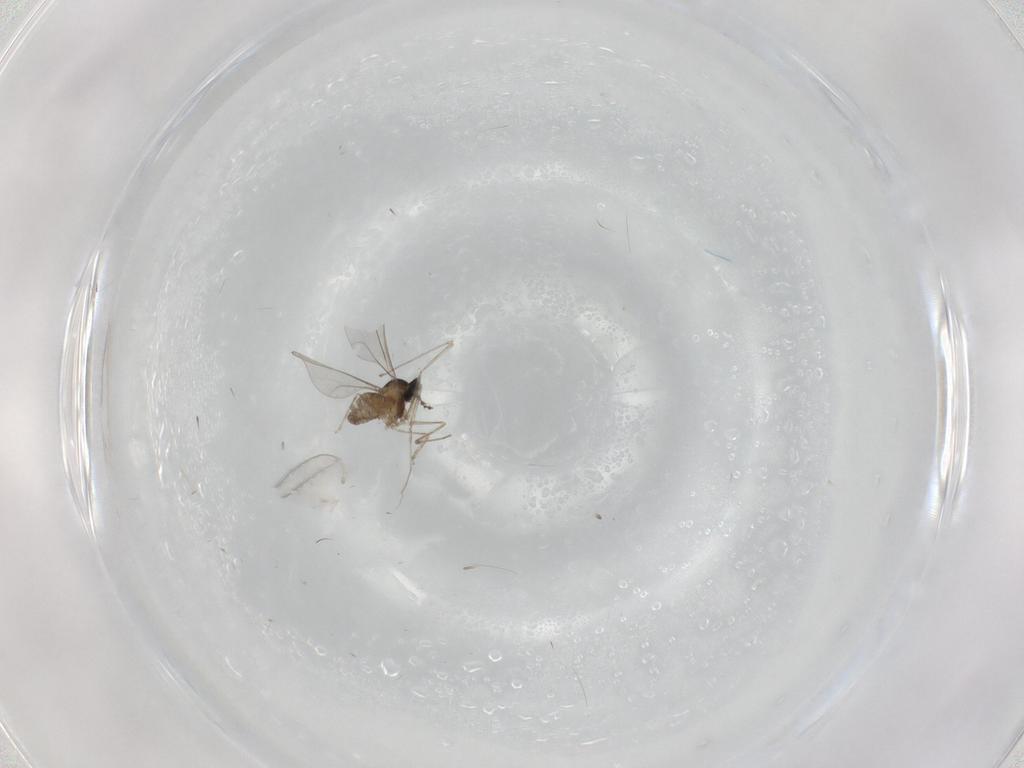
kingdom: Animalia
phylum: Arthropoda
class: Insecta
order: Diptera
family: Cecidomyiidae
